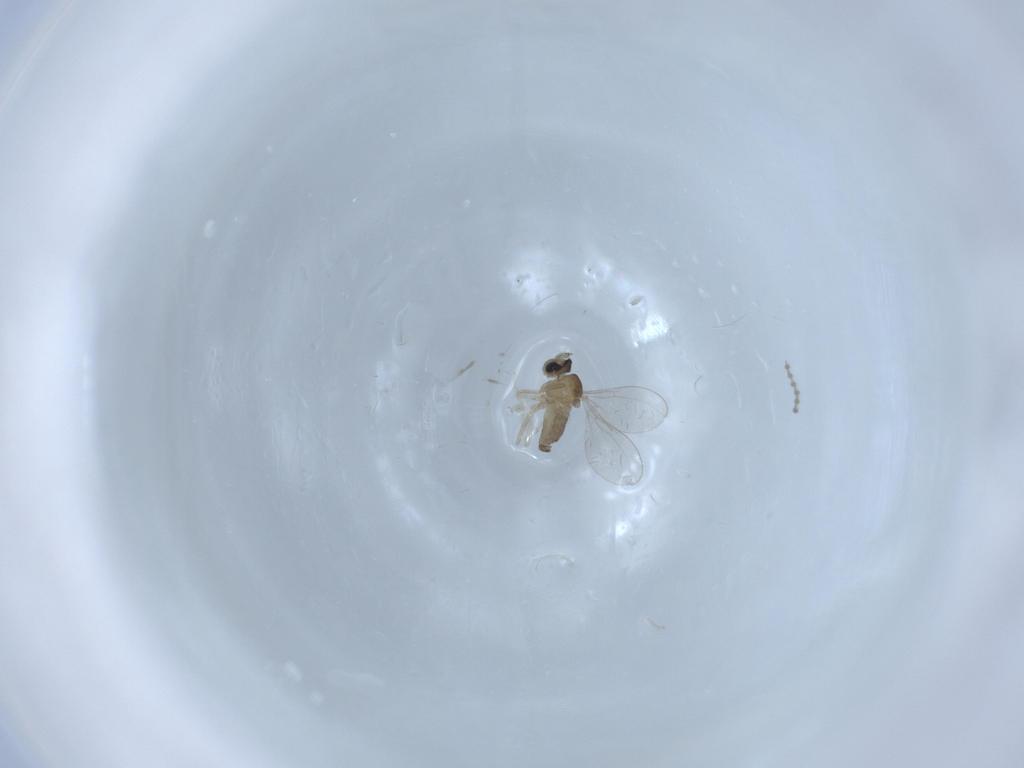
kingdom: Animalia
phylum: Arthropoda
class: Insecta
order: Diptera
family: Cecidomyiidae
